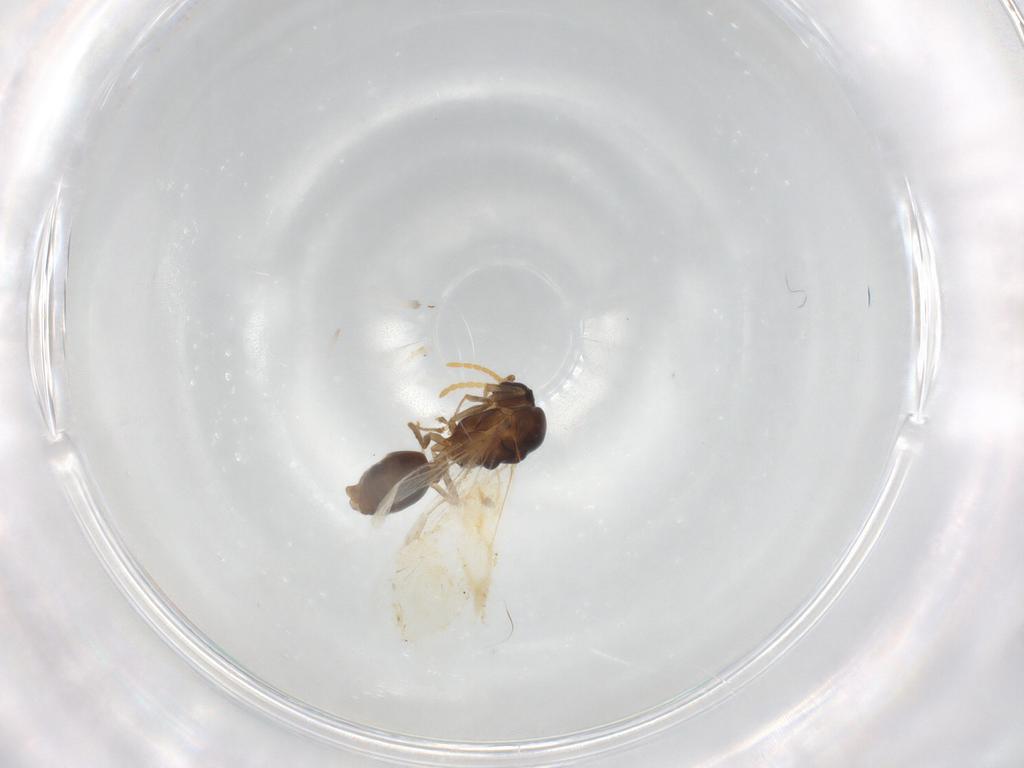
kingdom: Animalia
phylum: Arthropoda
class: Insecta
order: Hymenoptera
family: Formicidae
